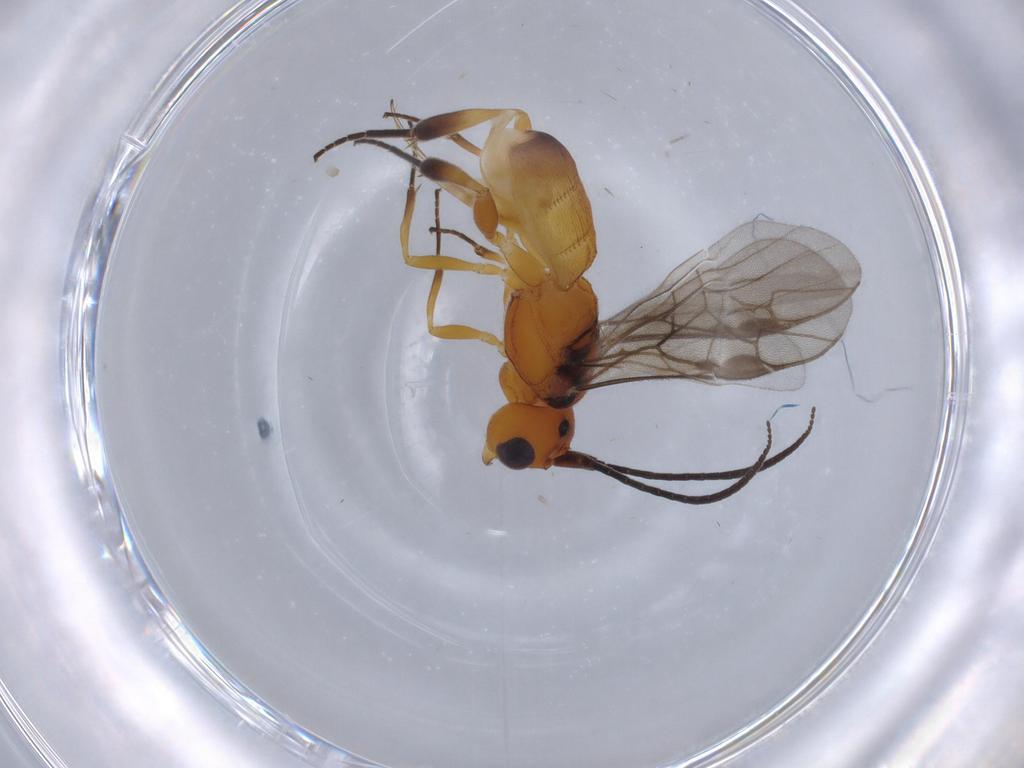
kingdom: Animalia
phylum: Arthropoda
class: Insecta
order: Hymenoptera
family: Braconidae
